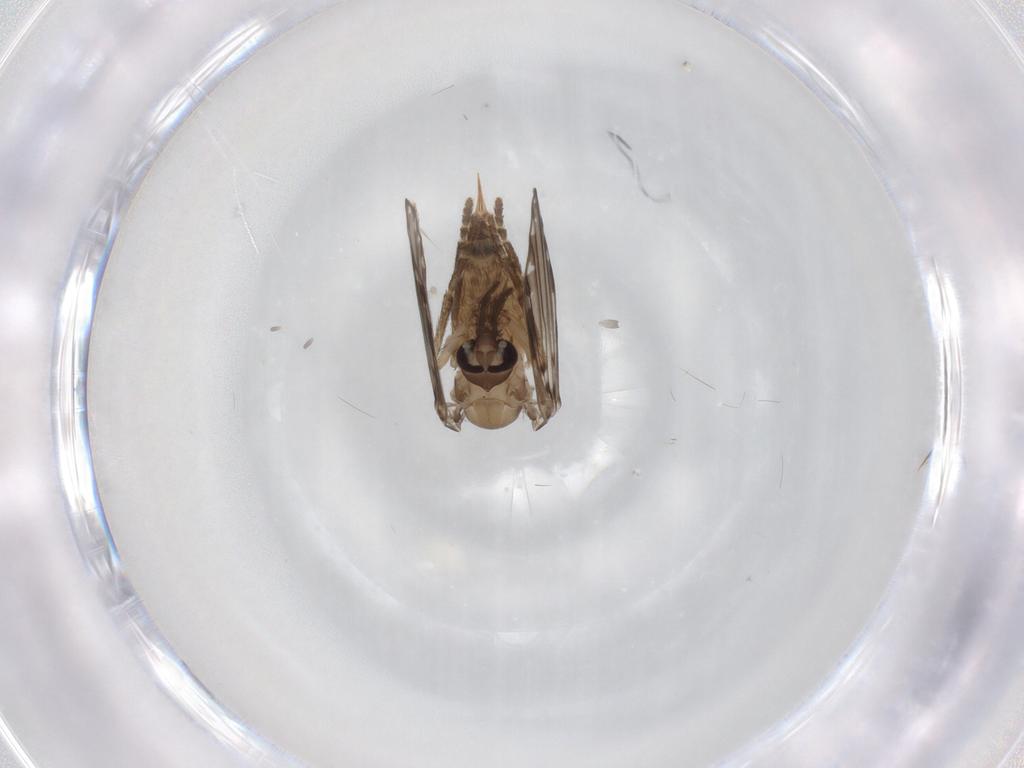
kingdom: Animalia
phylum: Arthropoda
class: Insecta
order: Diptera
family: Psychodidae
